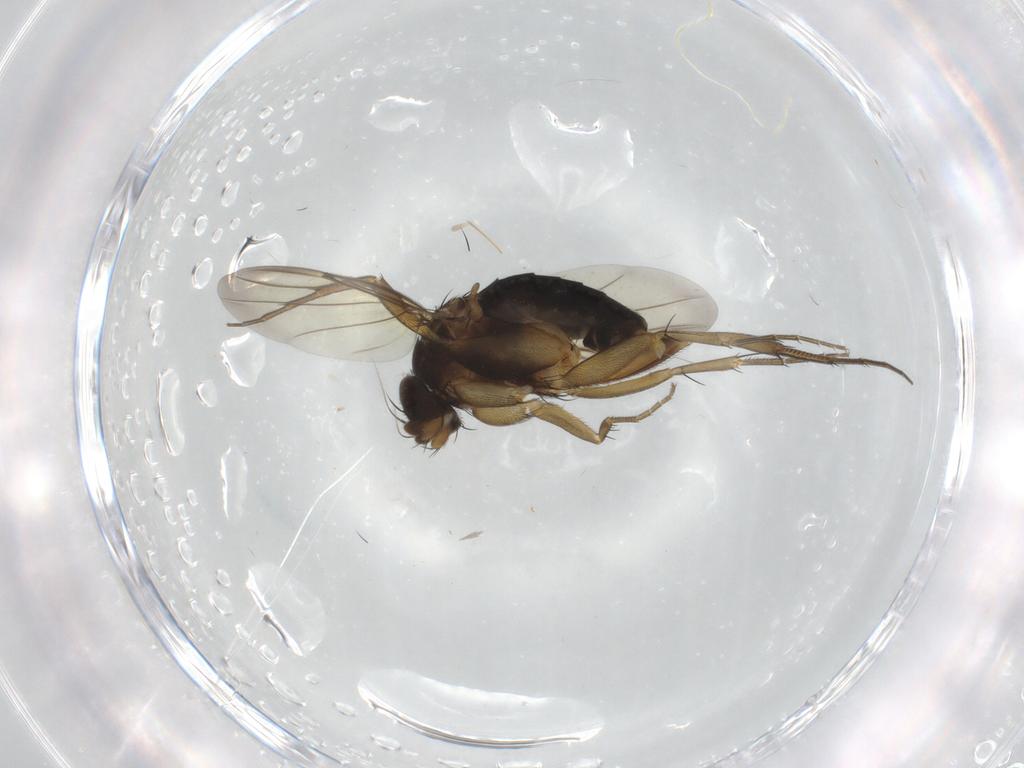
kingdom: Animalia
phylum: Arthropoda
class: Insecta
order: Diptera
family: Phoridae
